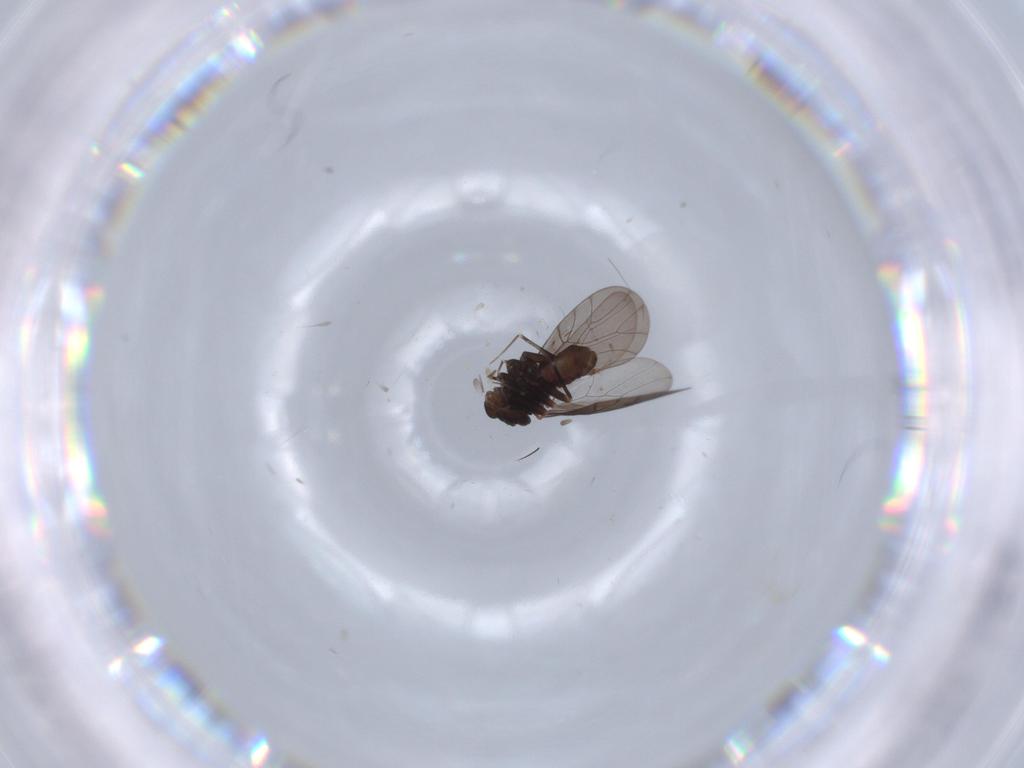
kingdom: Animalia
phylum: Arthropoda
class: Insecta
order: Psocodea
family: Lepidopsocidae
